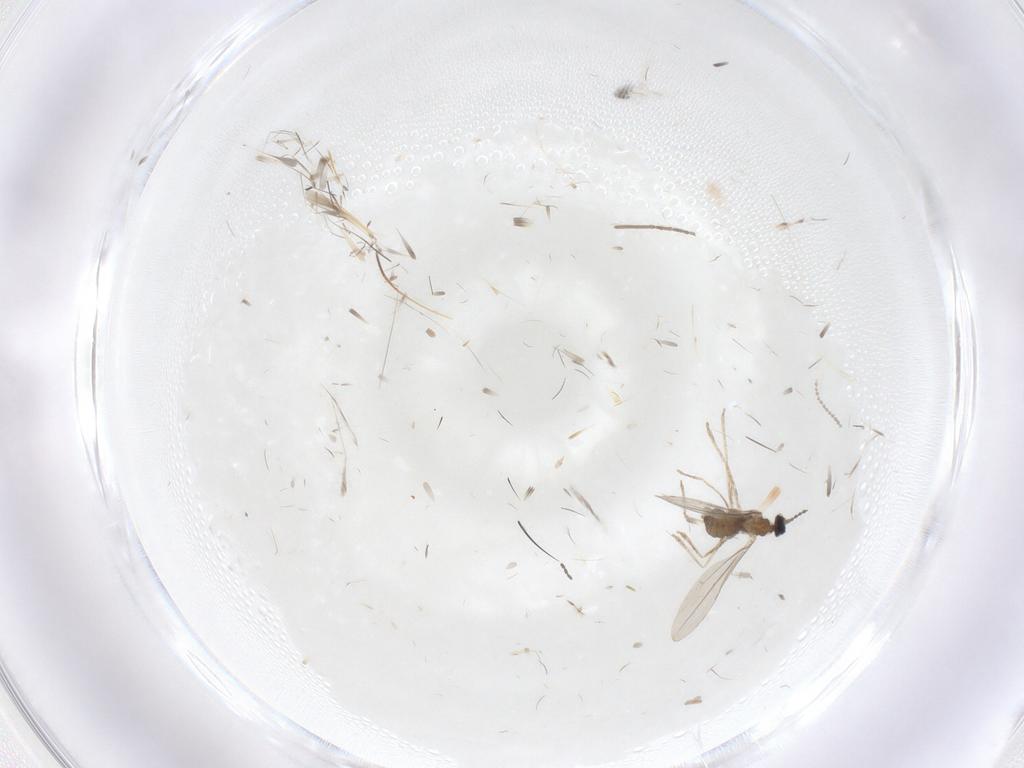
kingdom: Animalia
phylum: Arthropoda
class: Insecta
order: Diptera
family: Cecidomyiidae
